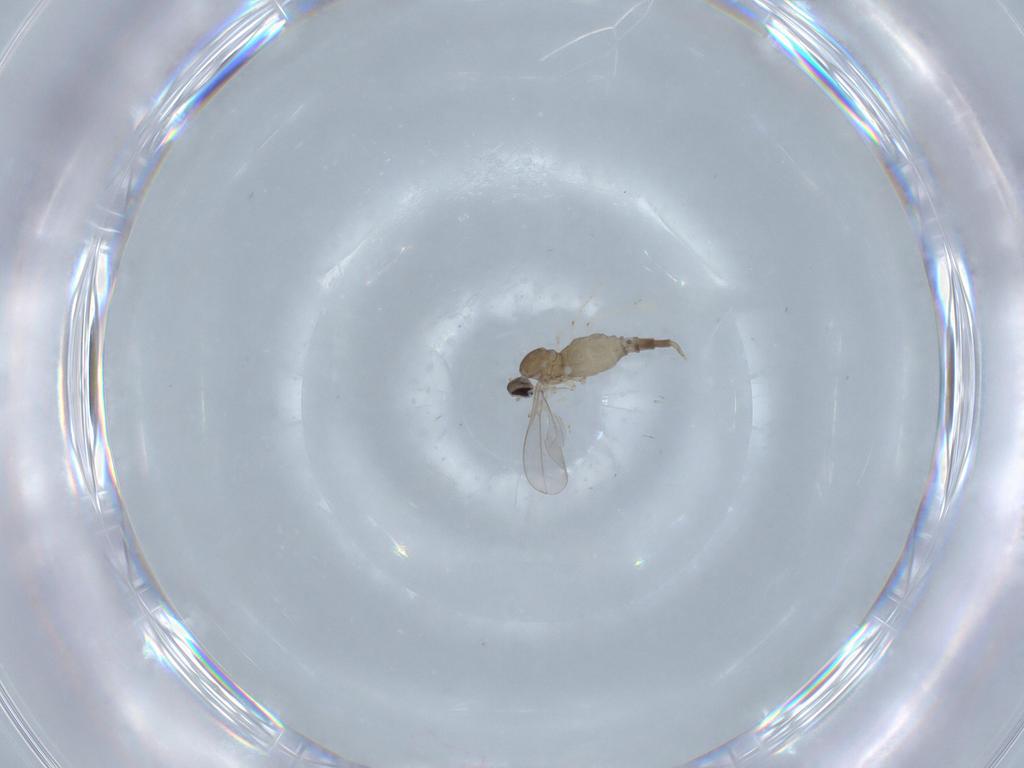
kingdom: Animalia
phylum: Arthropoda
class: Insecta
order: Diptera
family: Cecidomyiidae
